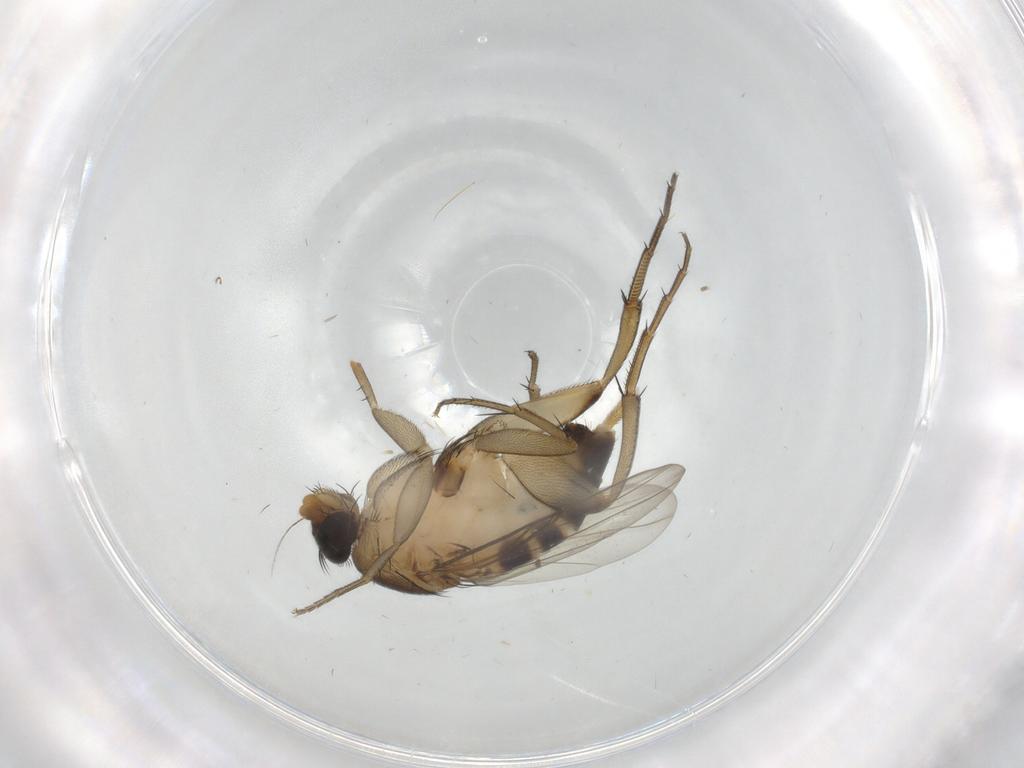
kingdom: Animalia
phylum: Arthropoda
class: Insecta
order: Diptera
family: Phoridae
